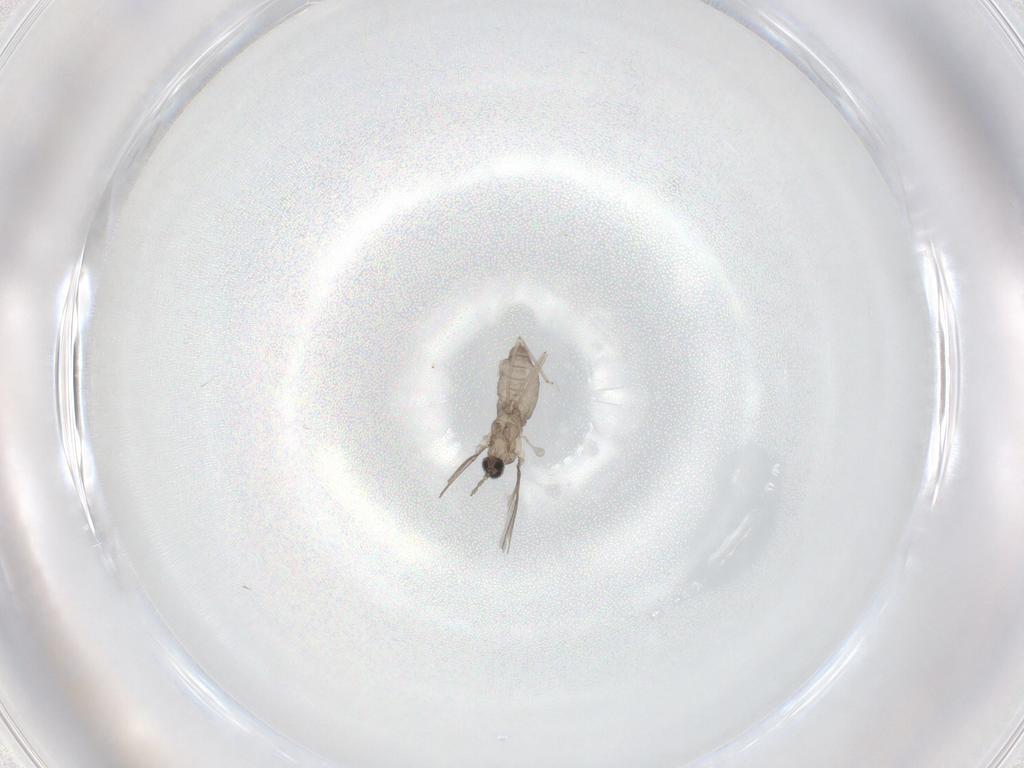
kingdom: Animalia
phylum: Arthropoda
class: Insecta
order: Diptera
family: Cecidomyiidae
